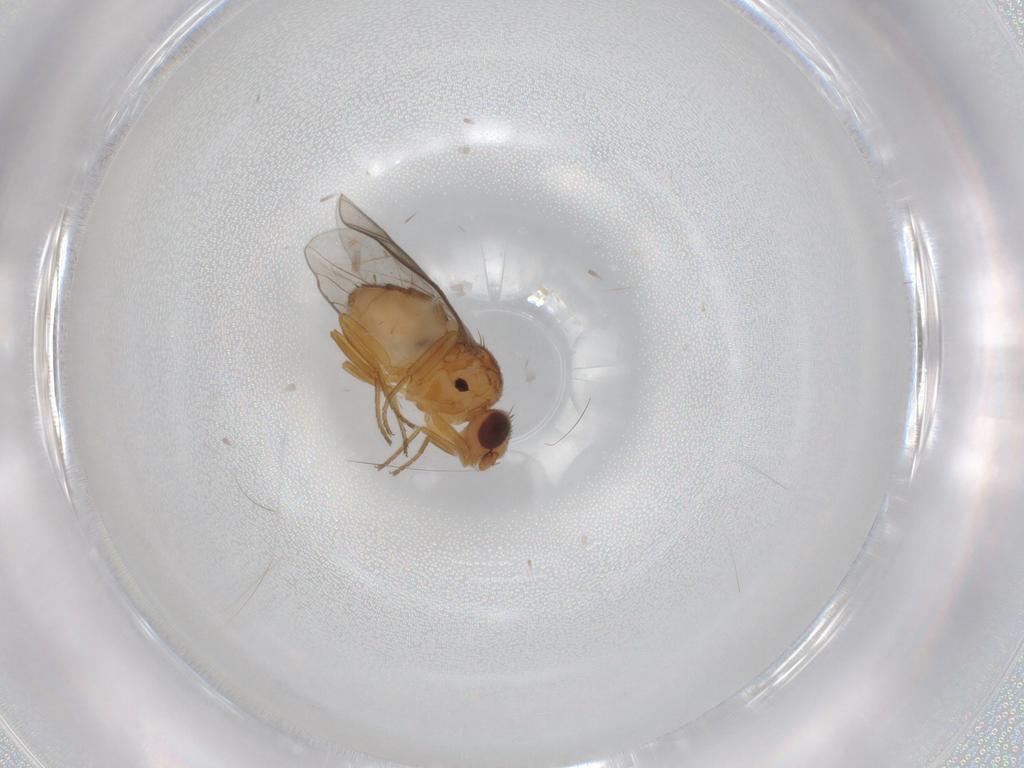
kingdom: Animalia
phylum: Arthropoda
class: Insecta
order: Diptera
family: Chloropidae
